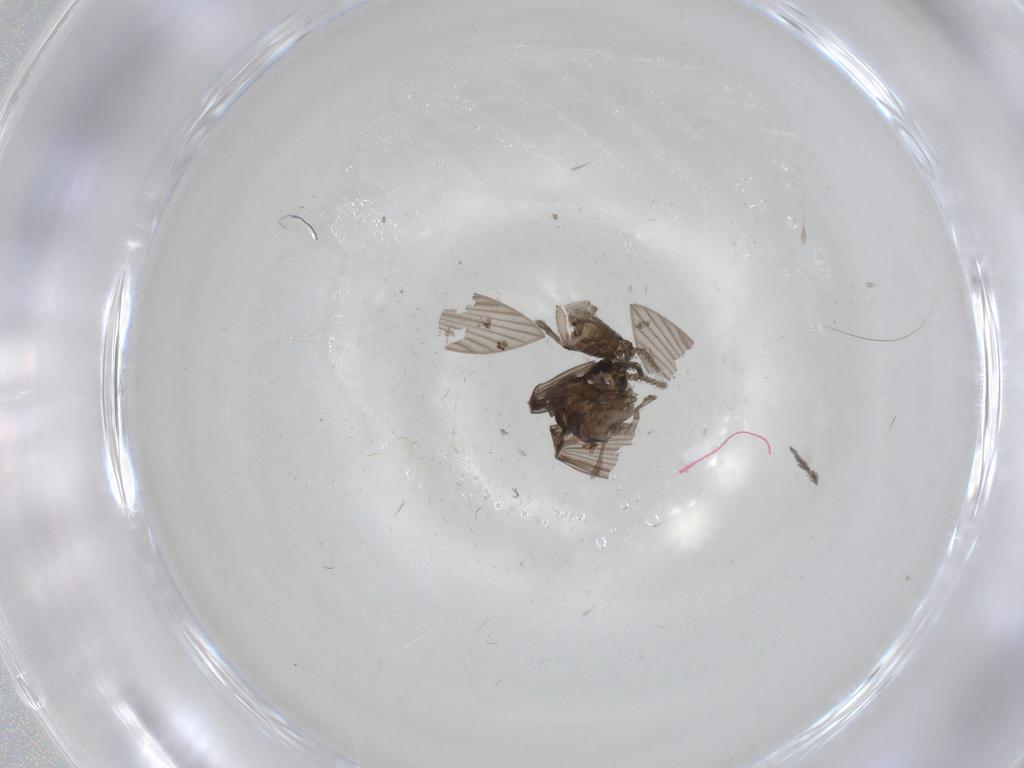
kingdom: Animalia
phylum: Arthropoda
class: Insecta
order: Diptera
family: Psychodidae
